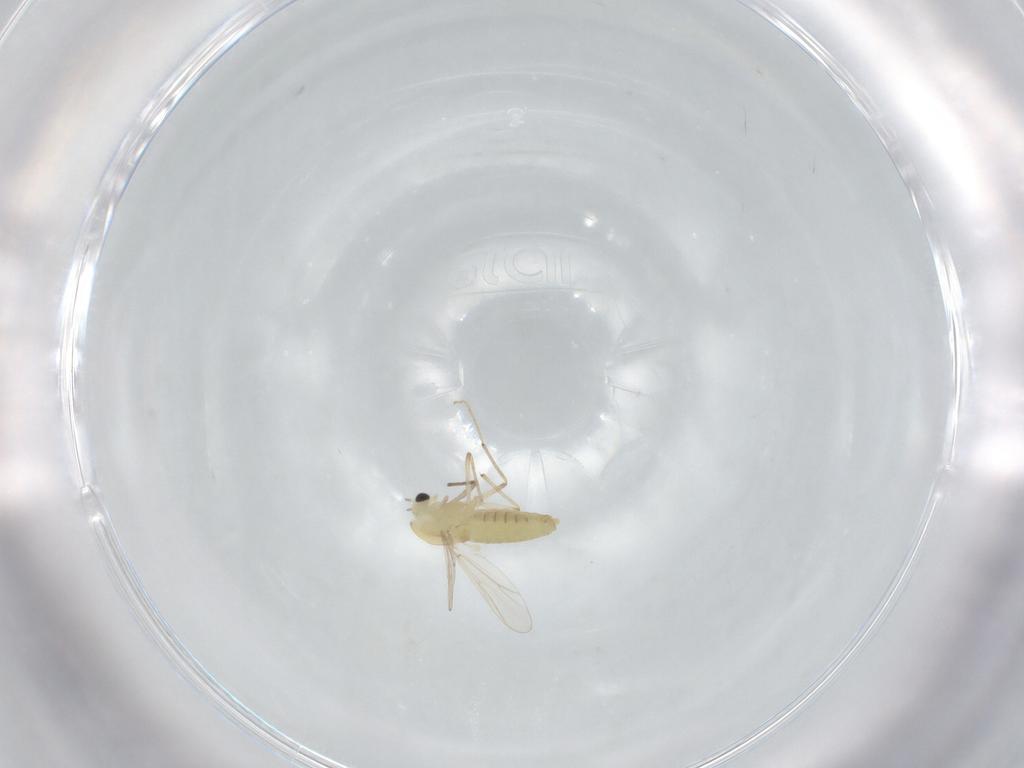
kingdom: Animalia
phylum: Arthropoda
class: Insecta
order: Diptera
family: Chironomidae
